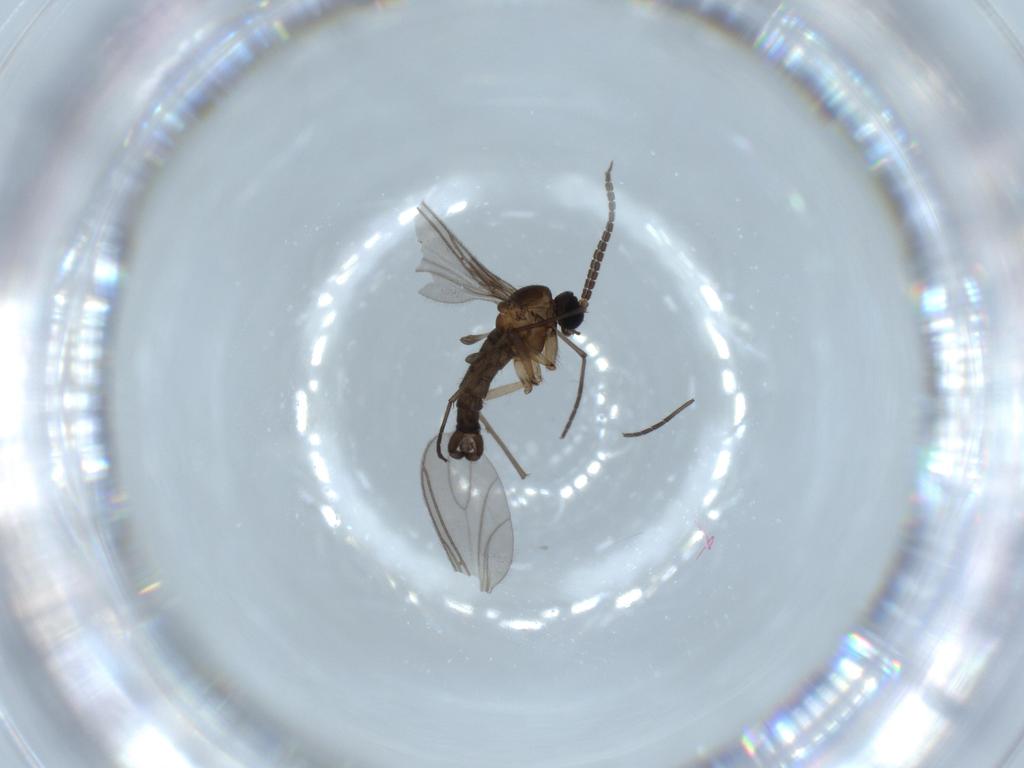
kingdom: Animalia
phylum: Arthropoda
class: Insecta
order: Diptera
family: Sciaridae
